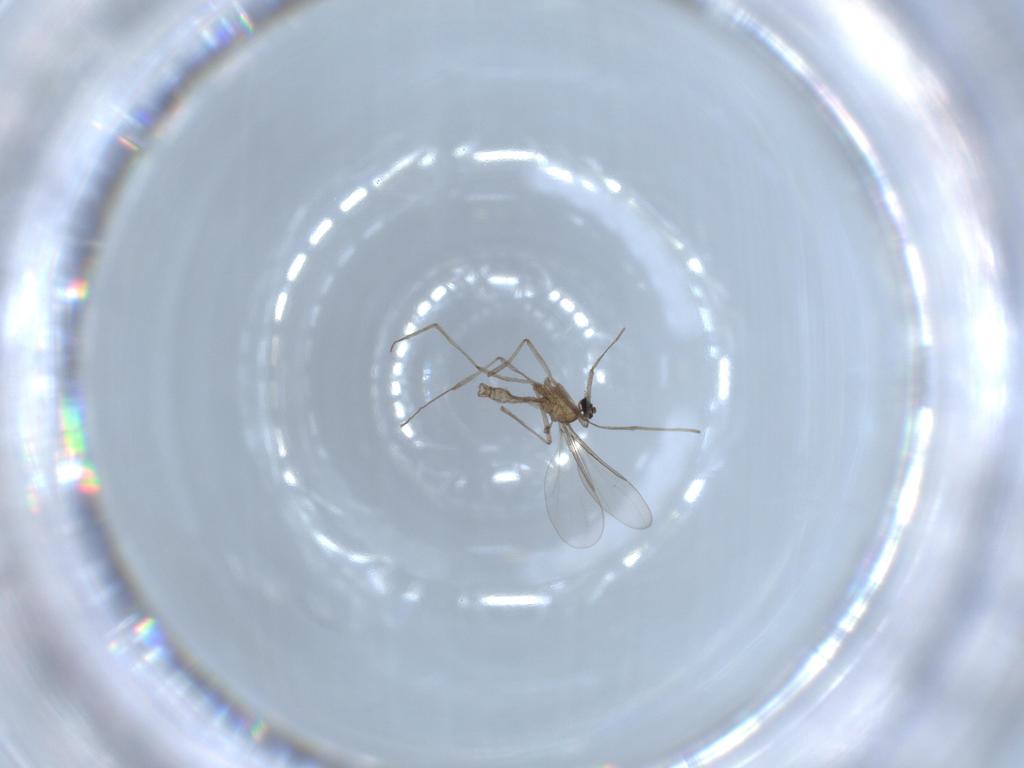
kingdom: Animalia
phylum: Arthropoda
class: Insecta
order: Diptera
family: Cecidomyiidae
